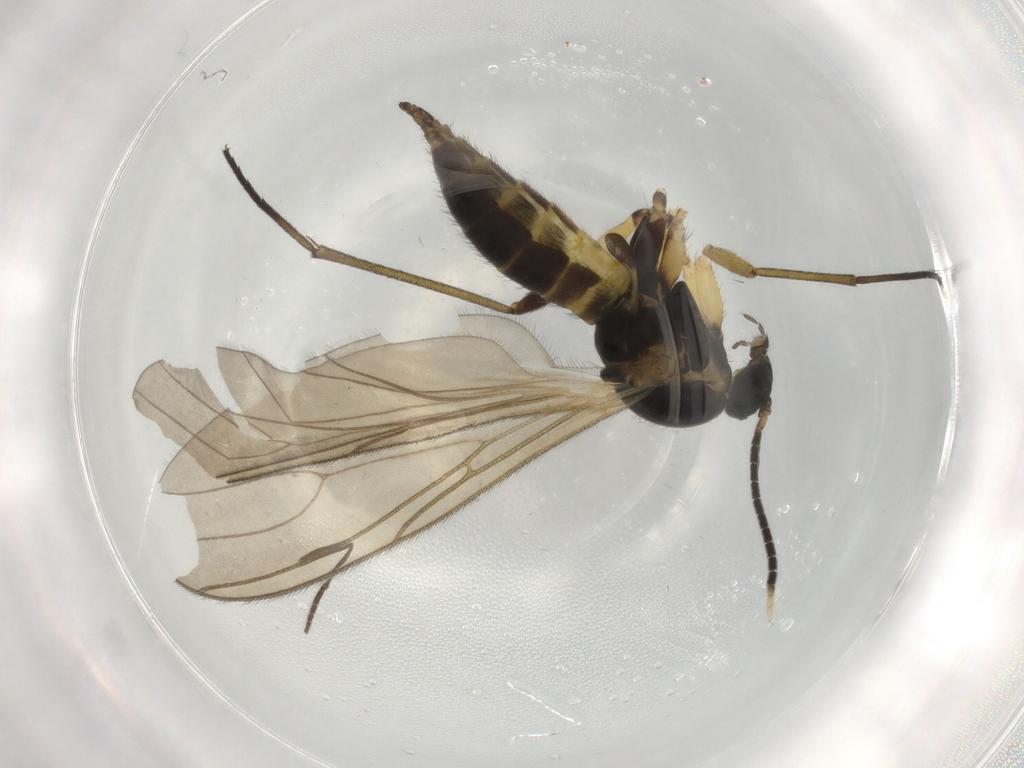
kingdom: Animalia
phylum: Arthropoda
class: Insecta
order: Diptera
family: Sciaridae
